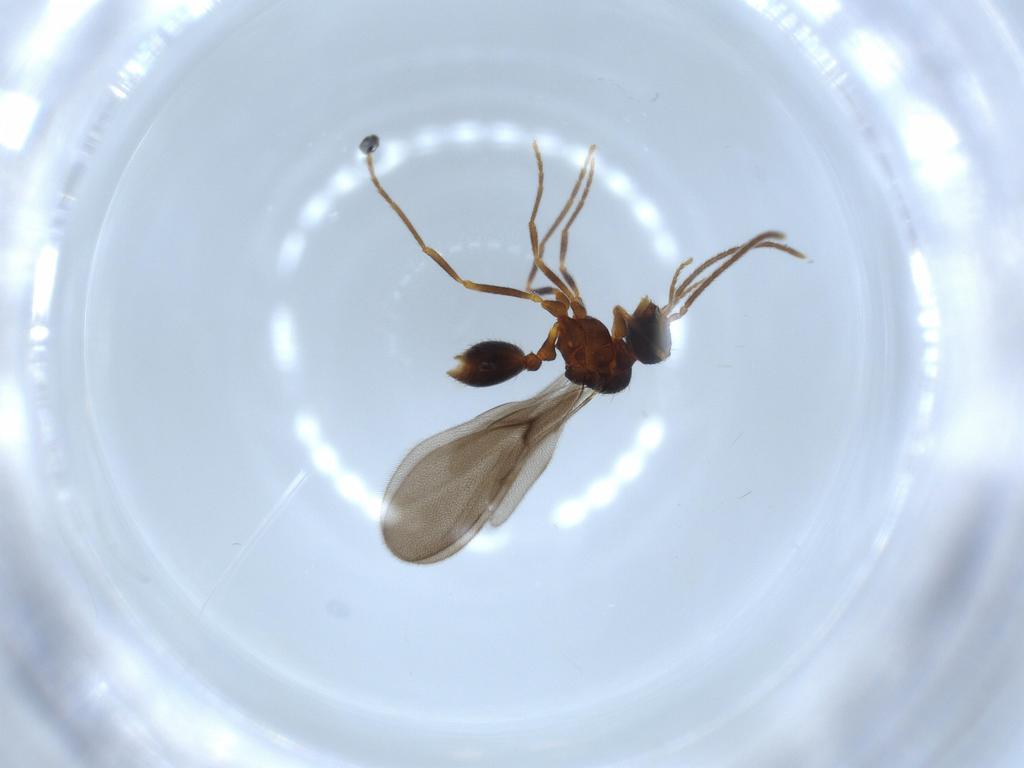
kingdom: Animalia
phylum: Arthropoda
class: Insecta
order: Hymenoptera
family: Formicidae
